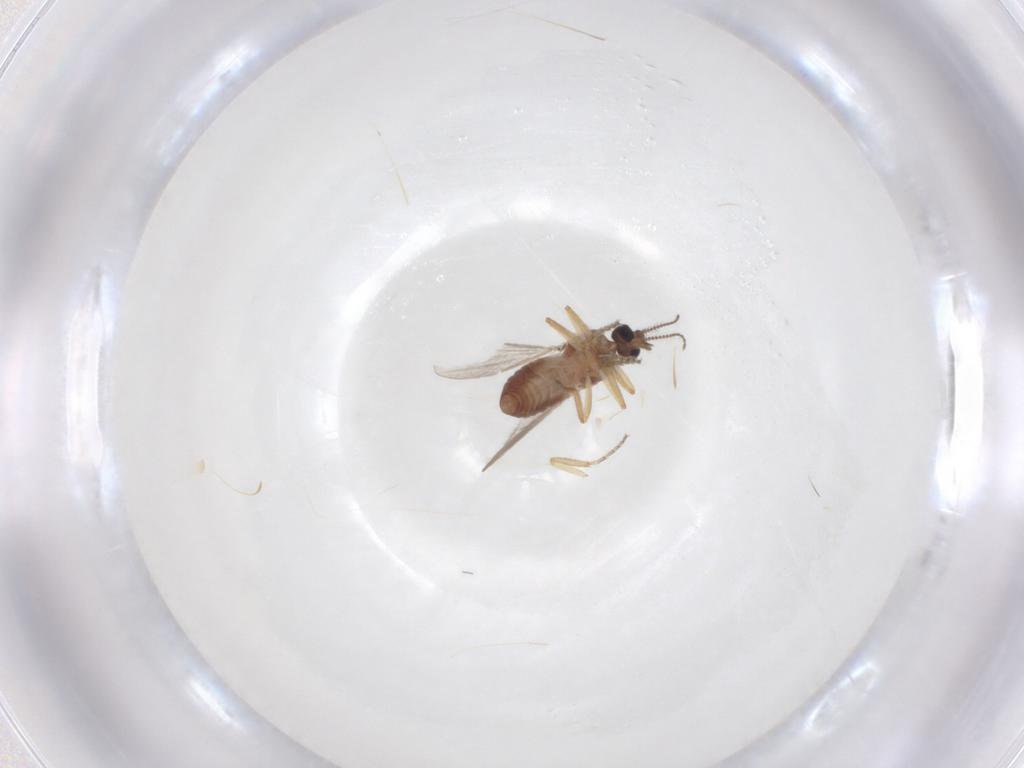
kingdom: Animalia
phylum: Arthropoda
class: Insecta
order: Diptera
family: Ceratopogonidae
